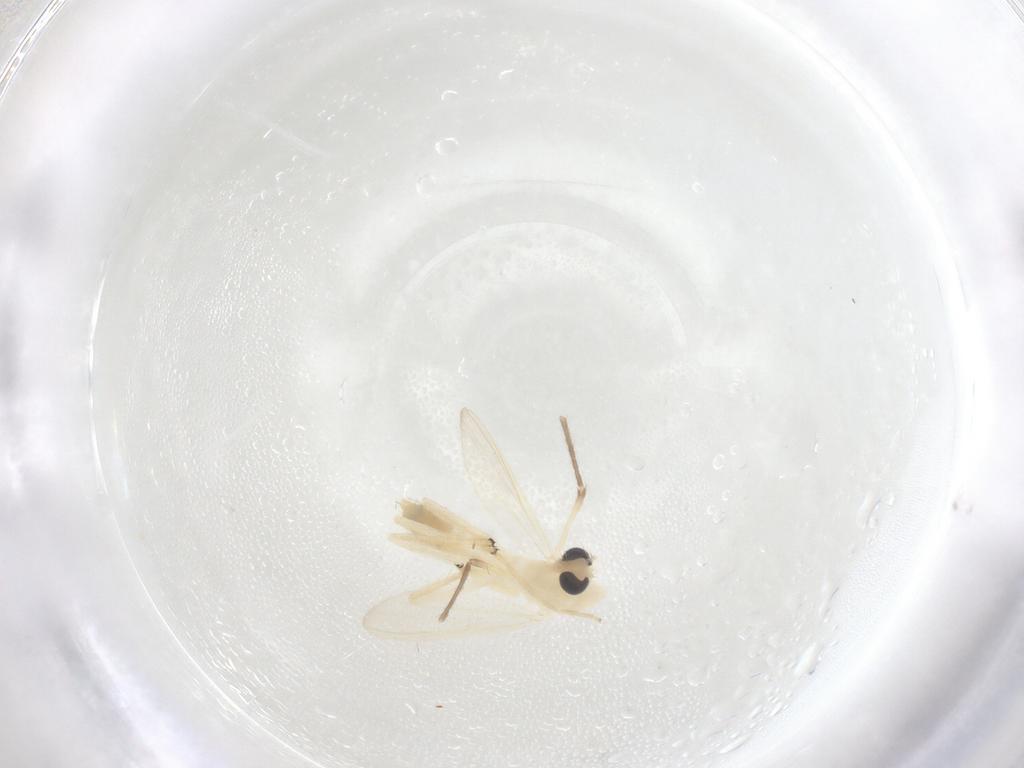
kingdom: Animalia
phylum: Arthropoda
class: Insecta
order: Diptera
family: Chironomidae
